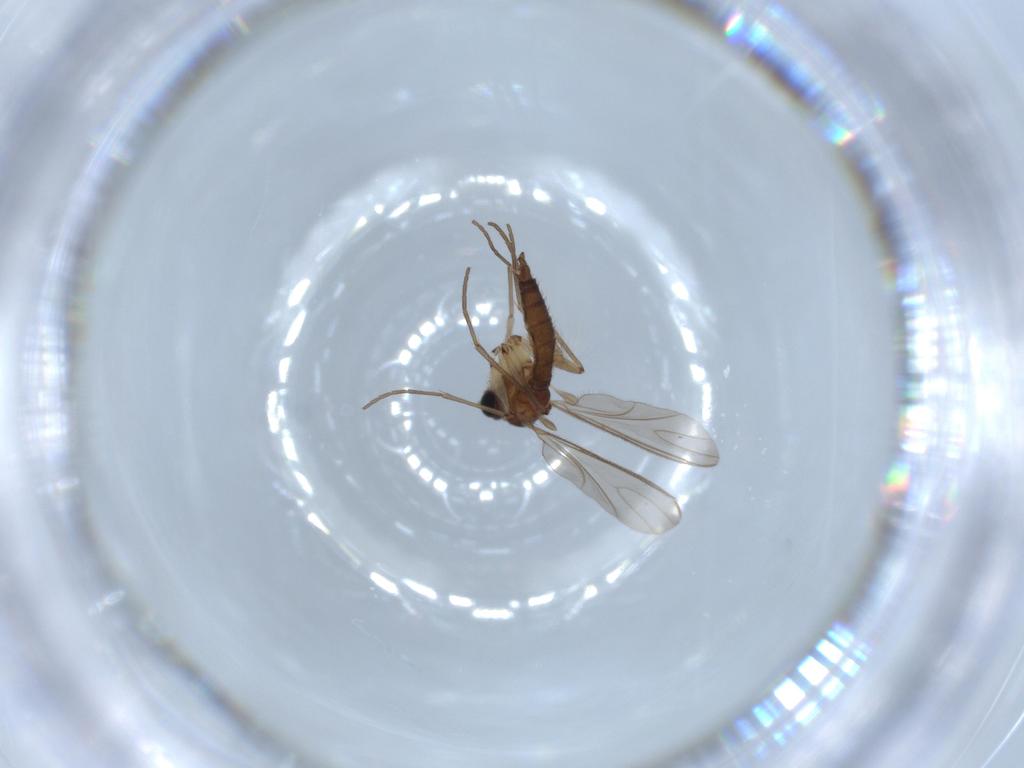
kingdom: Animalia
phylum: Arthropoda
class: Insecta
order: Diptera
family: Sciaridae
